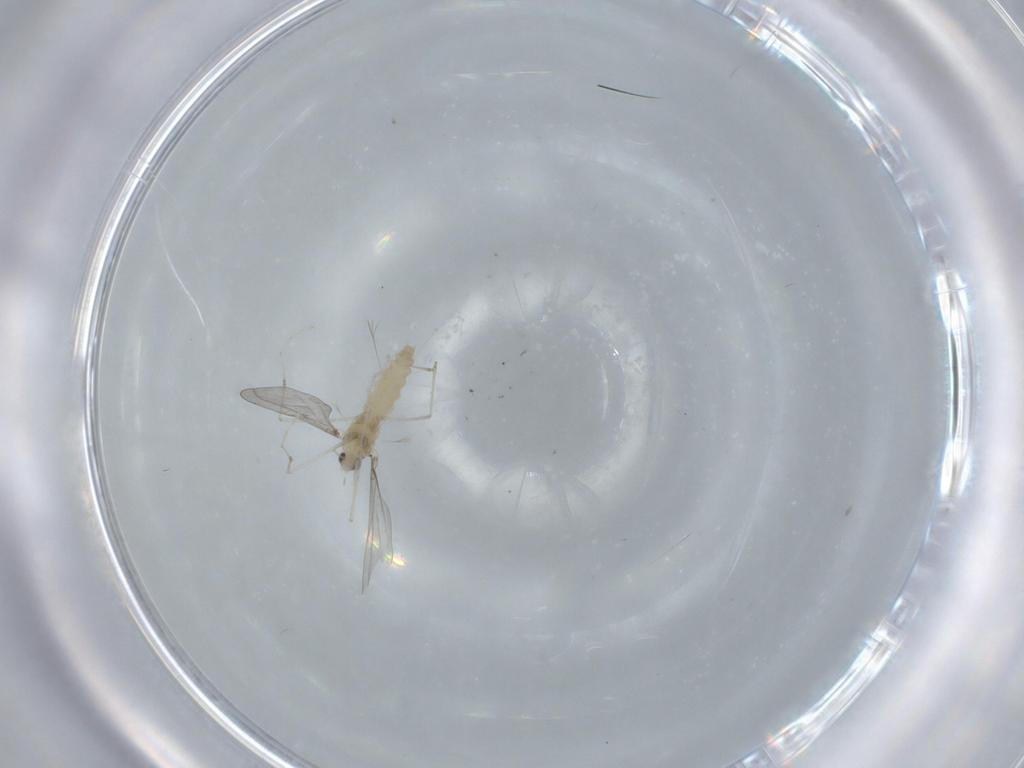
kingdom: Animalia
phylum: Arthropoda
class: Insecta
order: Diptera
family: Cecidomyiidae
